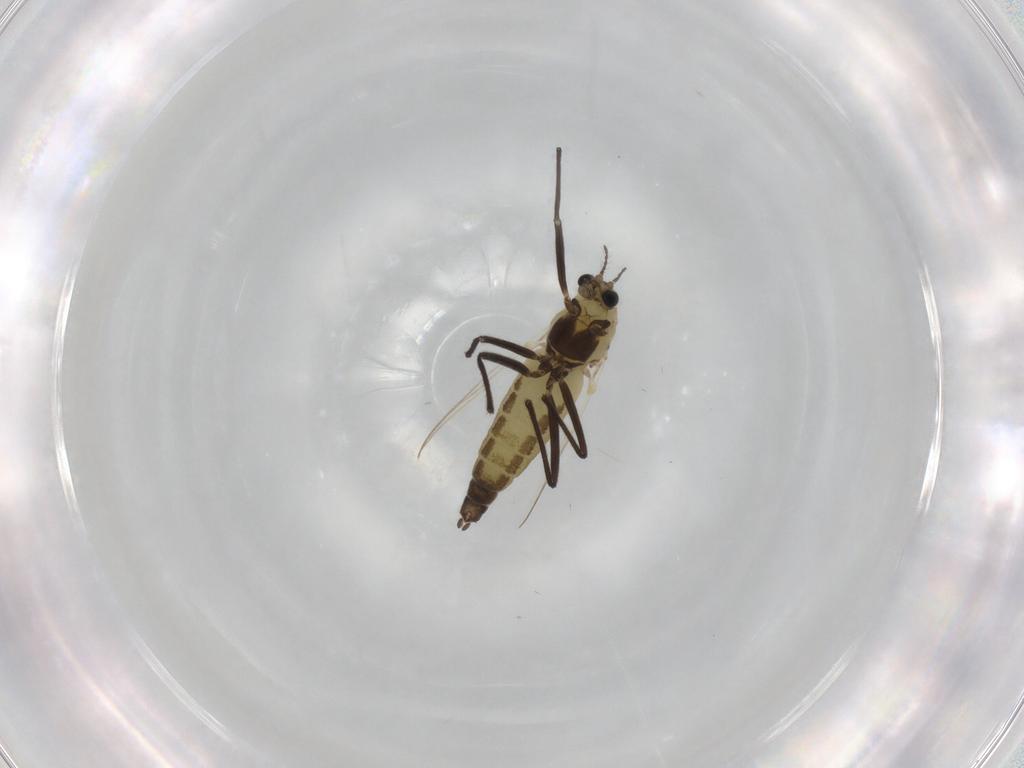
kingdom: Animalia
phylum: Arthropoda
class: Insecta
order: Diptera
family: Chironomidae
